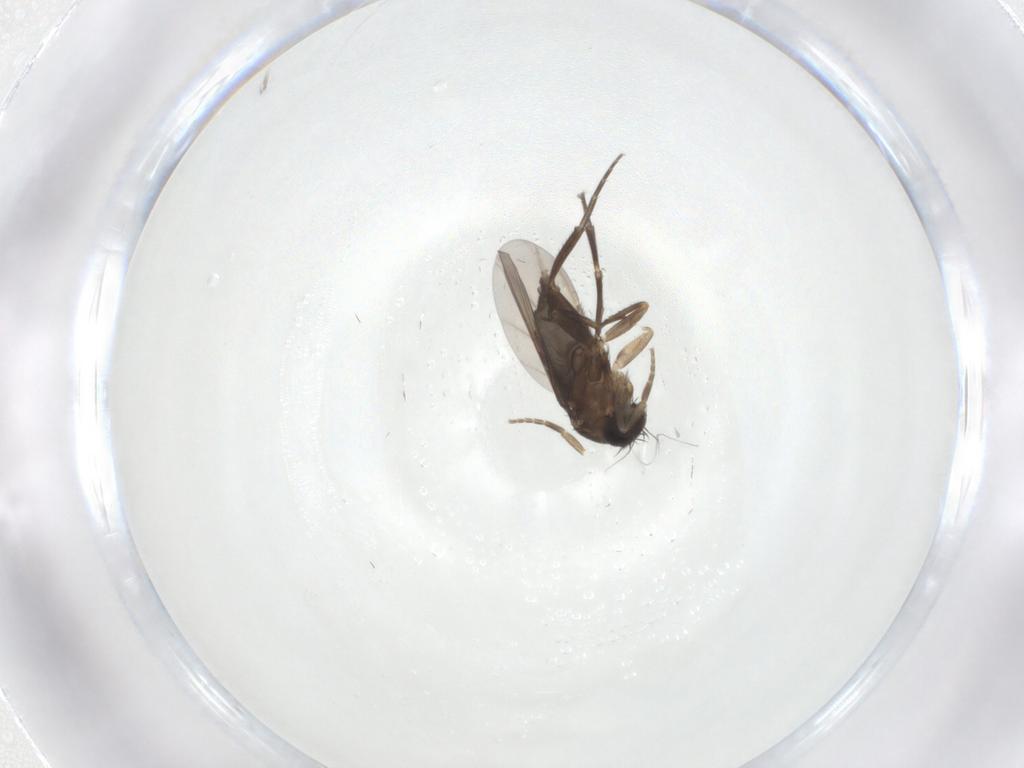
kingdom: Animalia
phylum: Arthropoda
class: Insecta
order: Diptera
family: Phoridae
